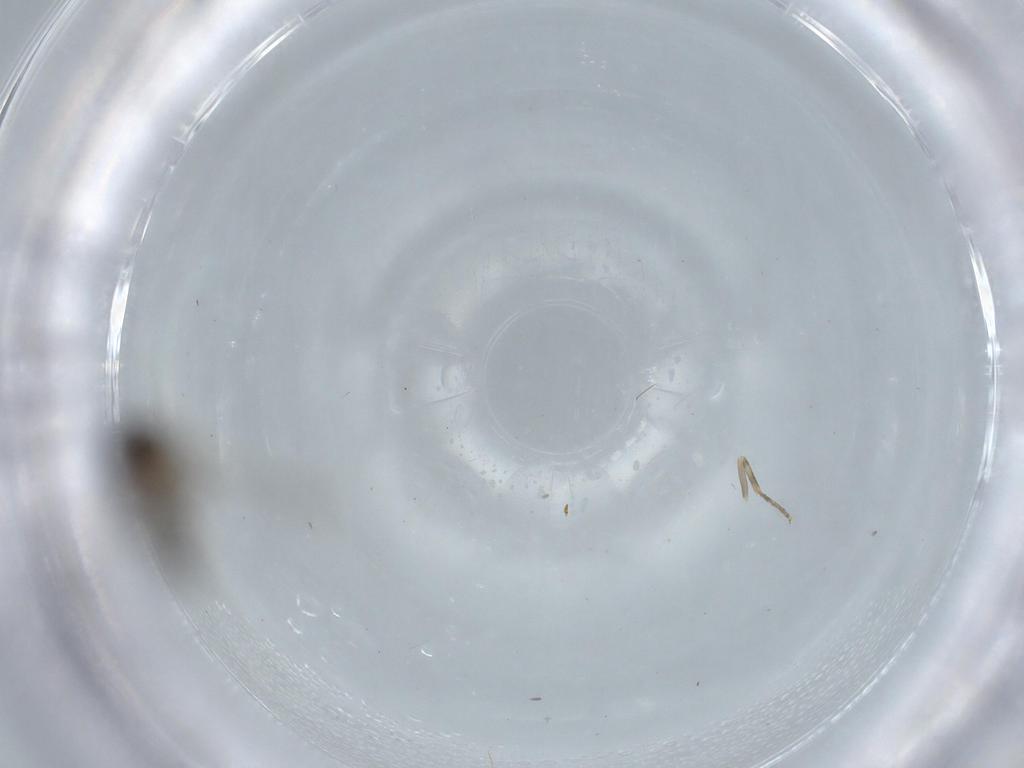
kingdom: Animalia
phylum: Arthropoda
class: Insecta
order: Diptera
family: Ceratopogonidae
